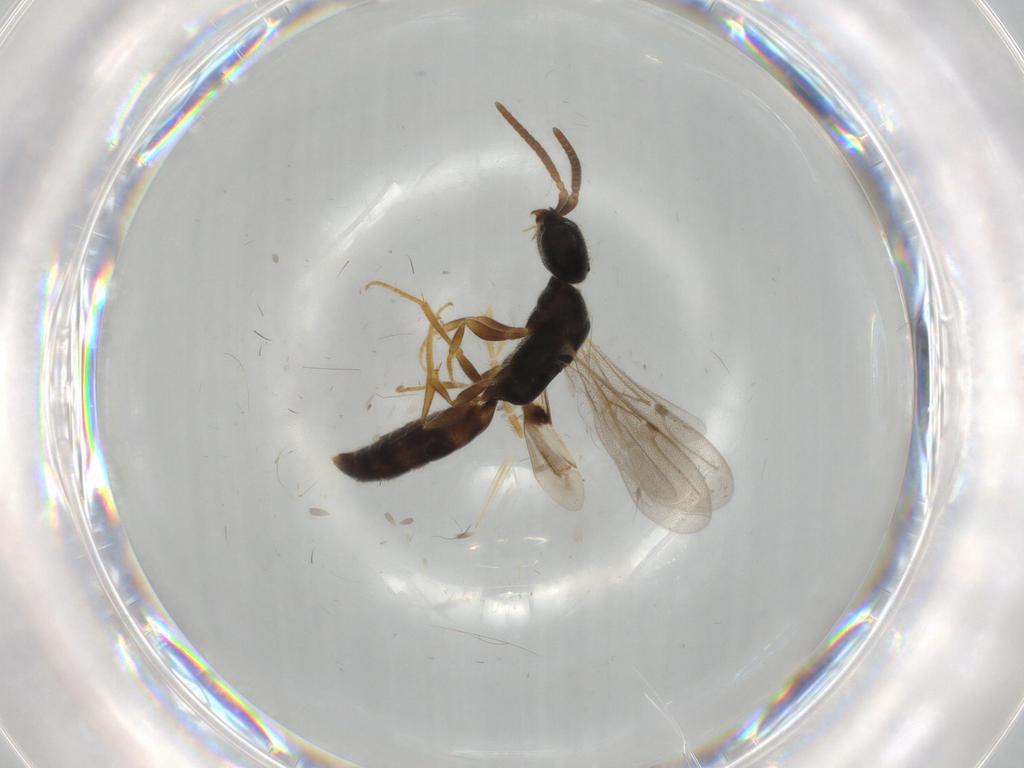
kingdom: Animalia
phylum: Arthropoda
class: Insecta
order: Hymenoptera
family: Bethylidae
